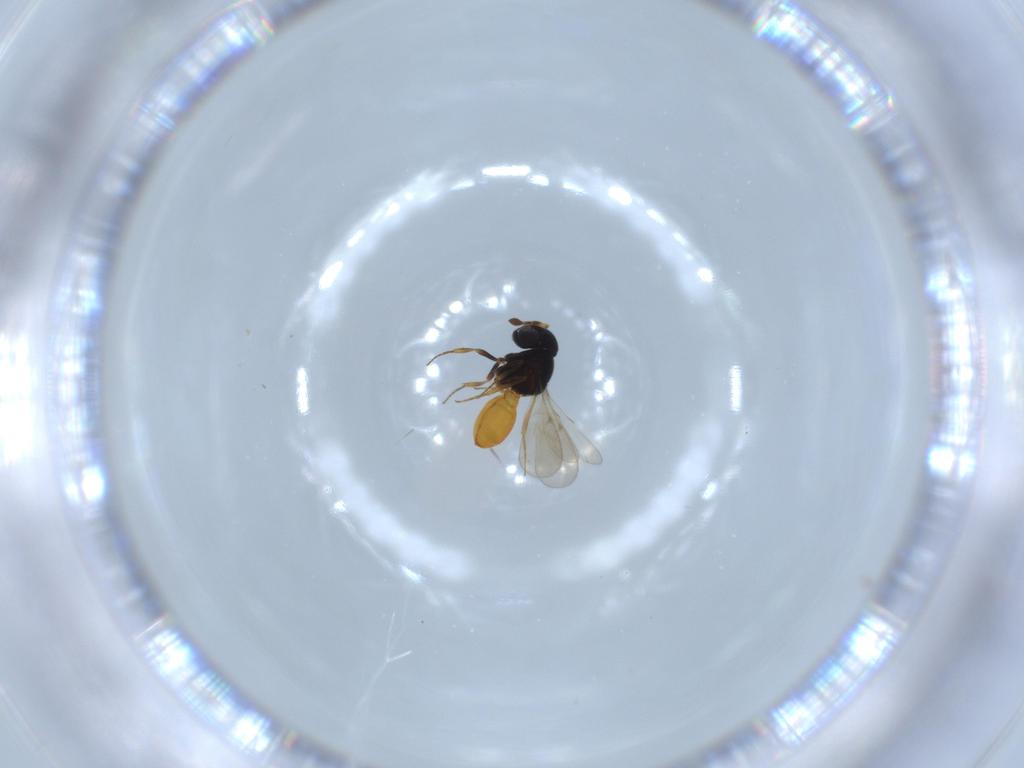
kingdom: Animalia
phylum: Arthropoda
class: Insecta
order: Hymenoptera
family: Scelionidae
